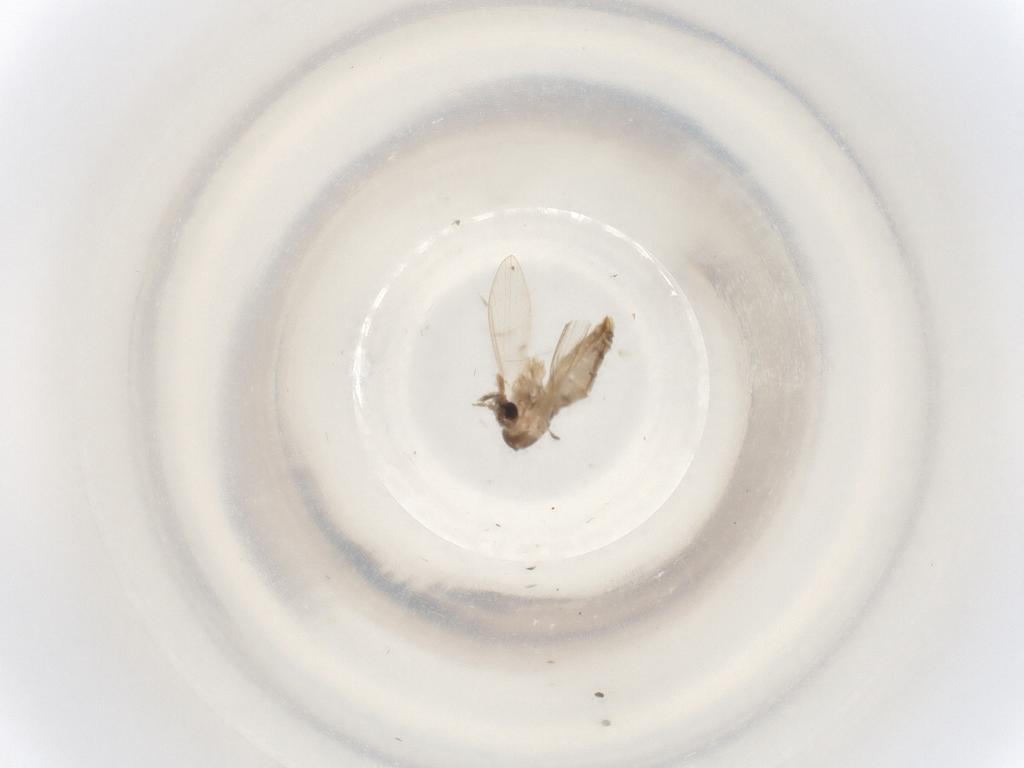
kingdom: Animalia
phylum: Arthropoda
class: Insecta
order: Diptera
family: Psychodidae
